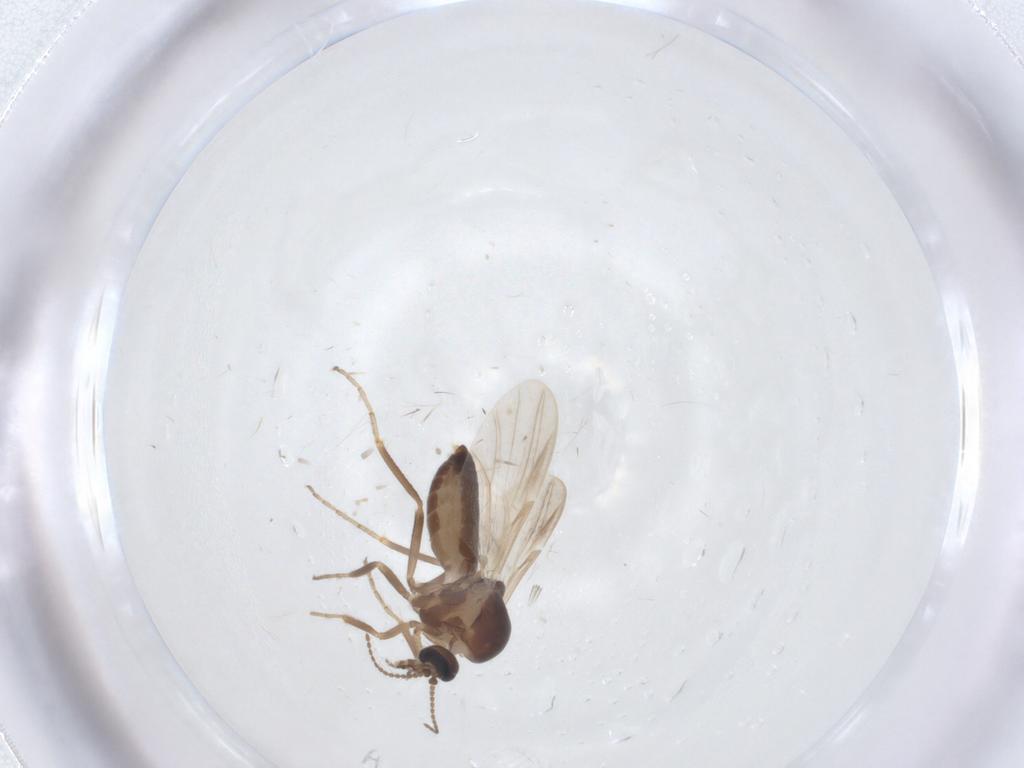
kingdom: Animalia
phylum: Arthropoda
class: Insecta
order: Diptera
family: Ceratopogonidae
